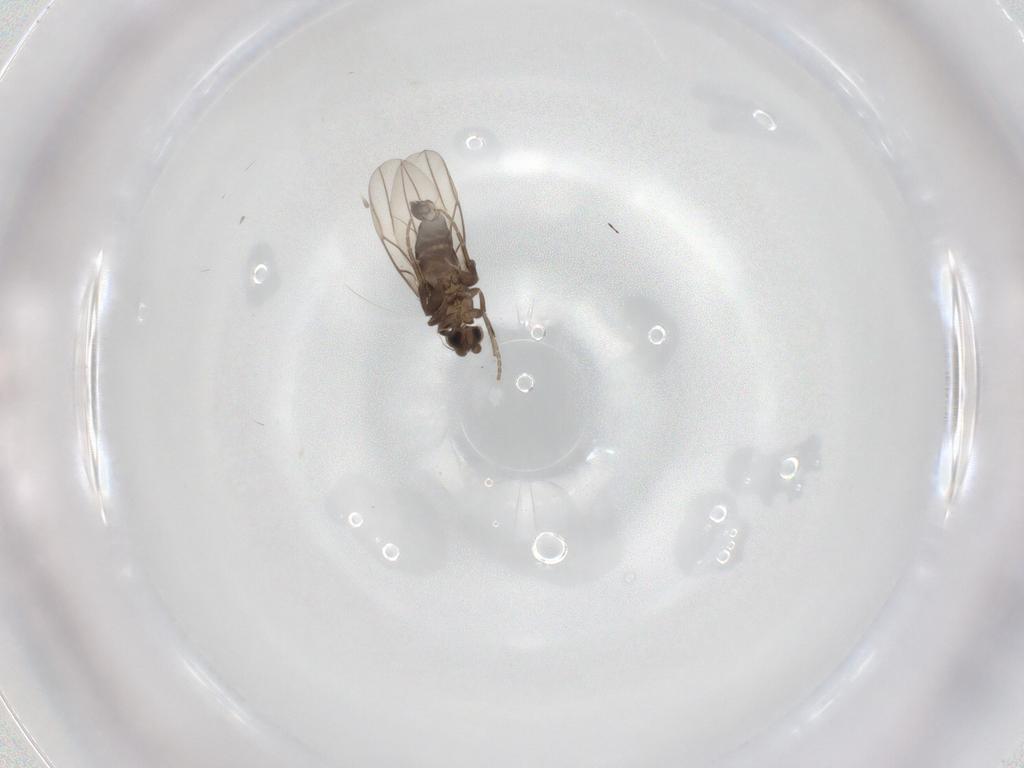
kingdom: Animalia
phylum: Arthropoda
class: Insecta
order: Diptera
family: Phoridae
